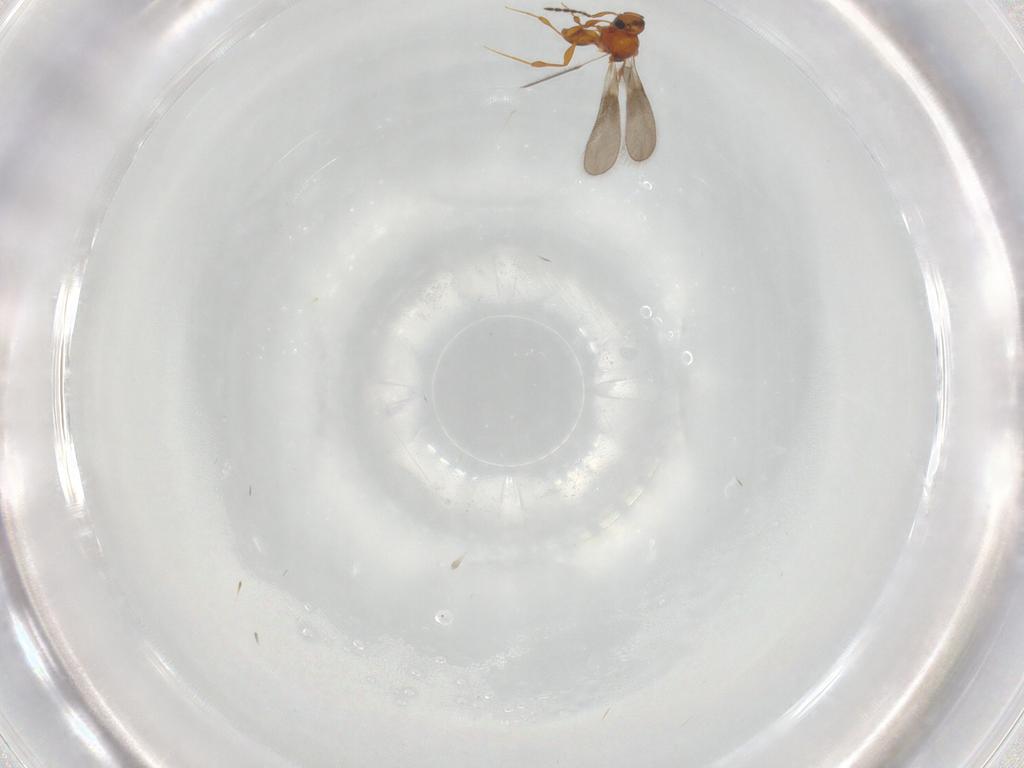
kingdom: Animalia
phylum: Arthropoda
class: Insecta
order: Hymenoptera
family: Platygastridae
